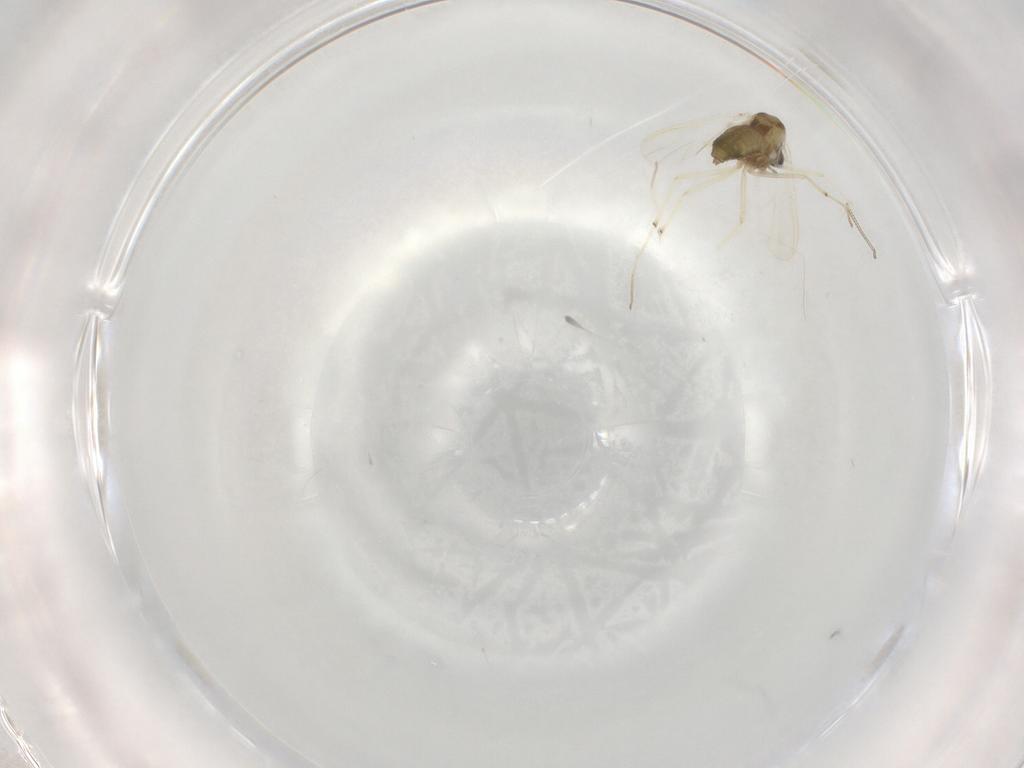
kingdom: Animalia
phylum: Arthropoda
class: Insecta
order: Diptera
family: Chironomidae
